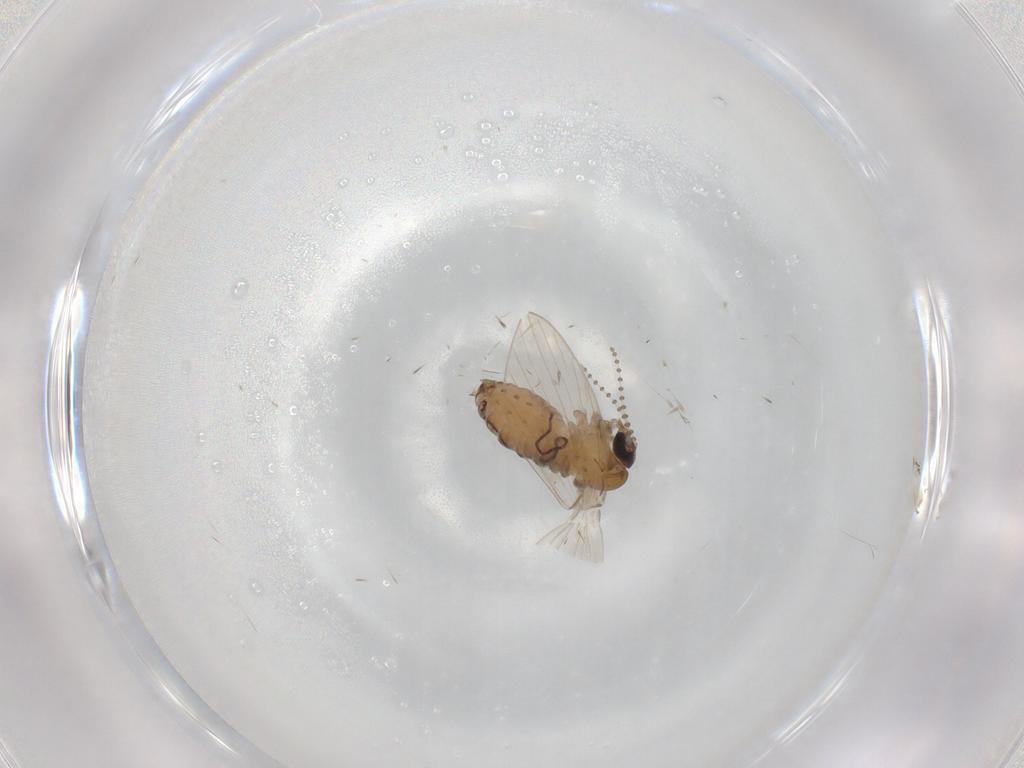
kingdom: Animalia
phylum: Arthropoda
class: Insecta
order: Diptera
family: Psychodidae
